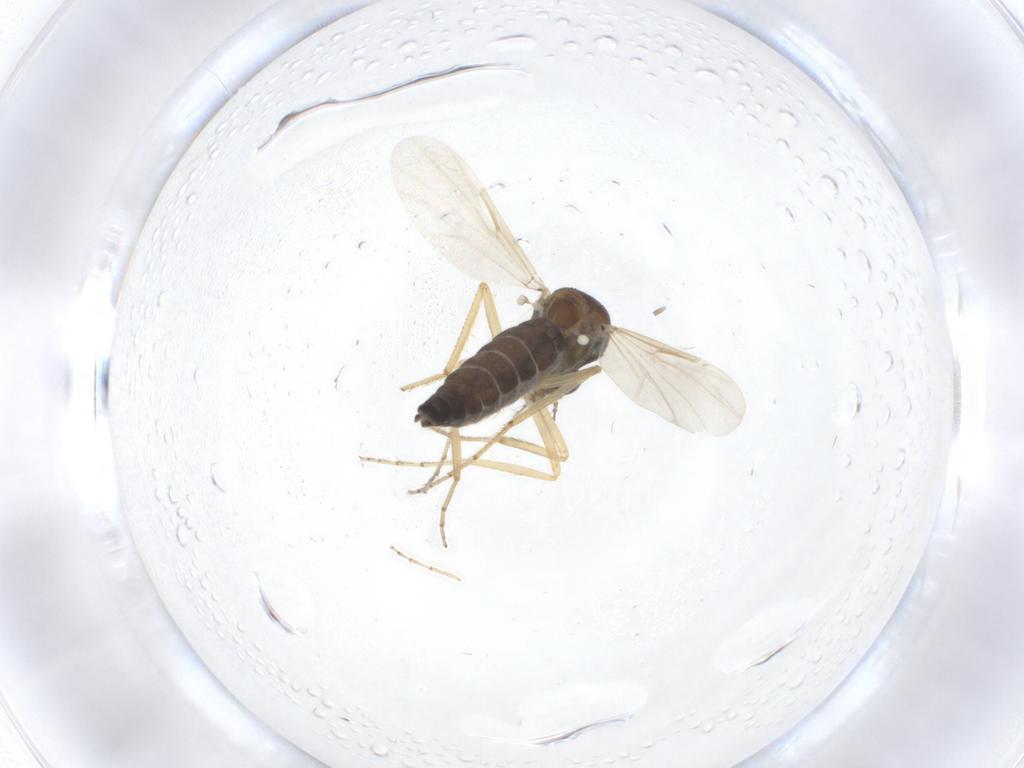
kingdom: Animalia
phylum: Arthropoda
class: Insecta
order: Diptera
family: Ceratopogonidae
